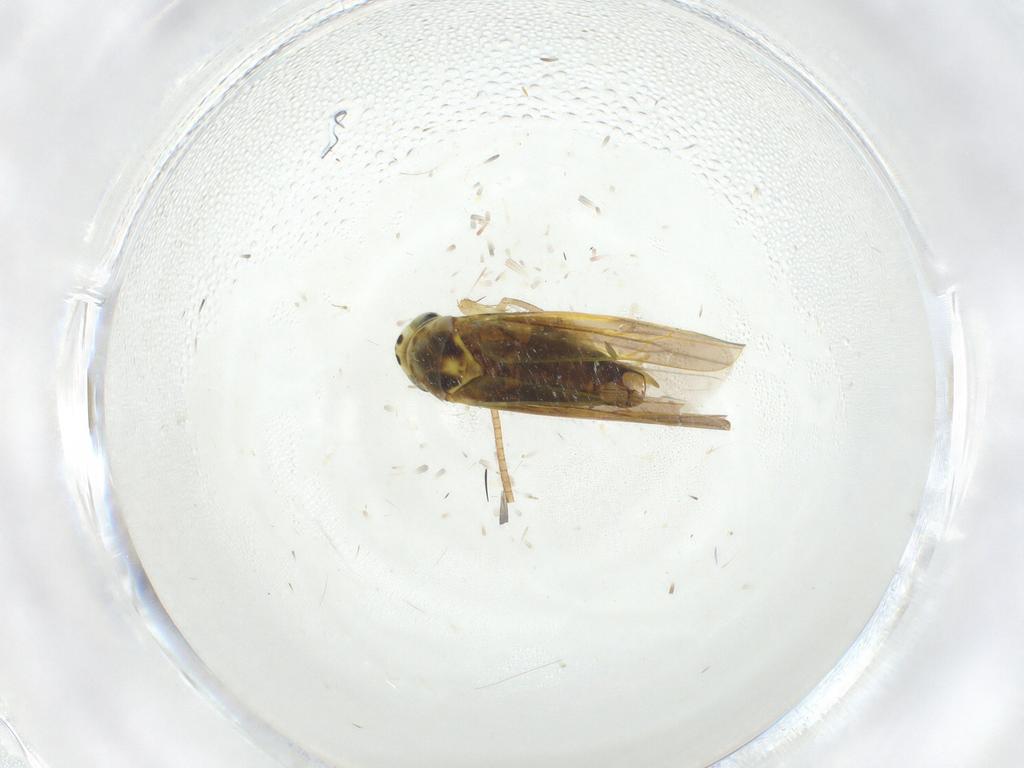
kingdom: Animalia
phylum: Arthropoda
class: Insecta
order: Hemiptera
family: Cicadellidae
